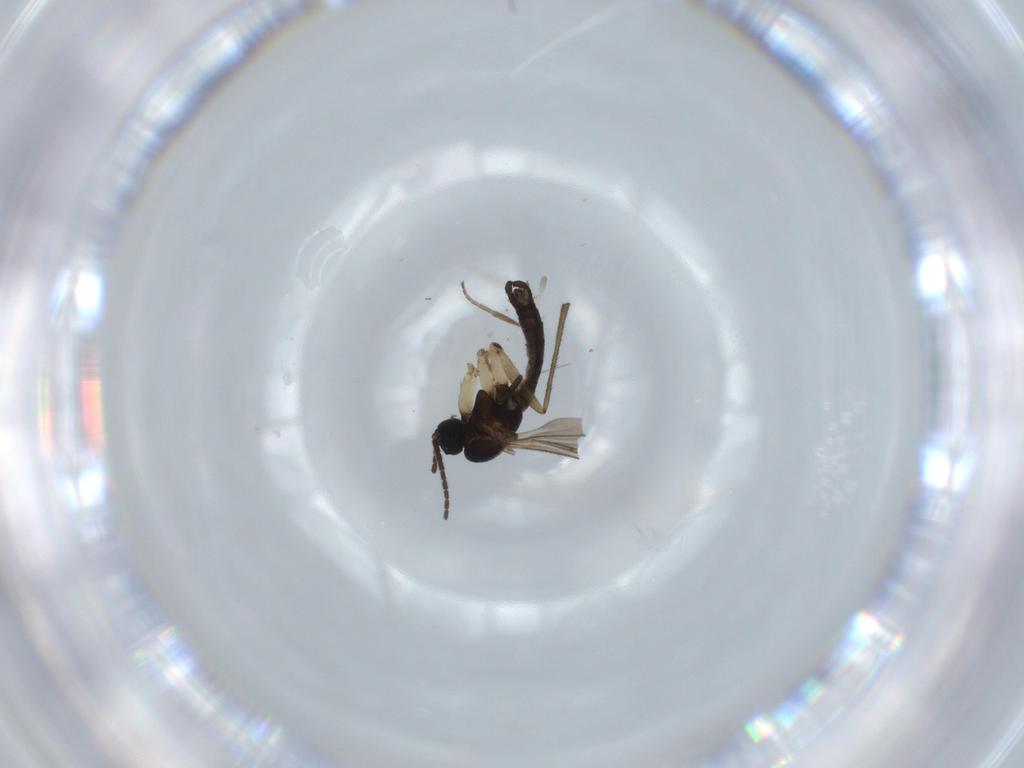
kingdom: Animalia
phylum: Arthropoda
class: Insecta
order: Diptera
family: Sciaridae
